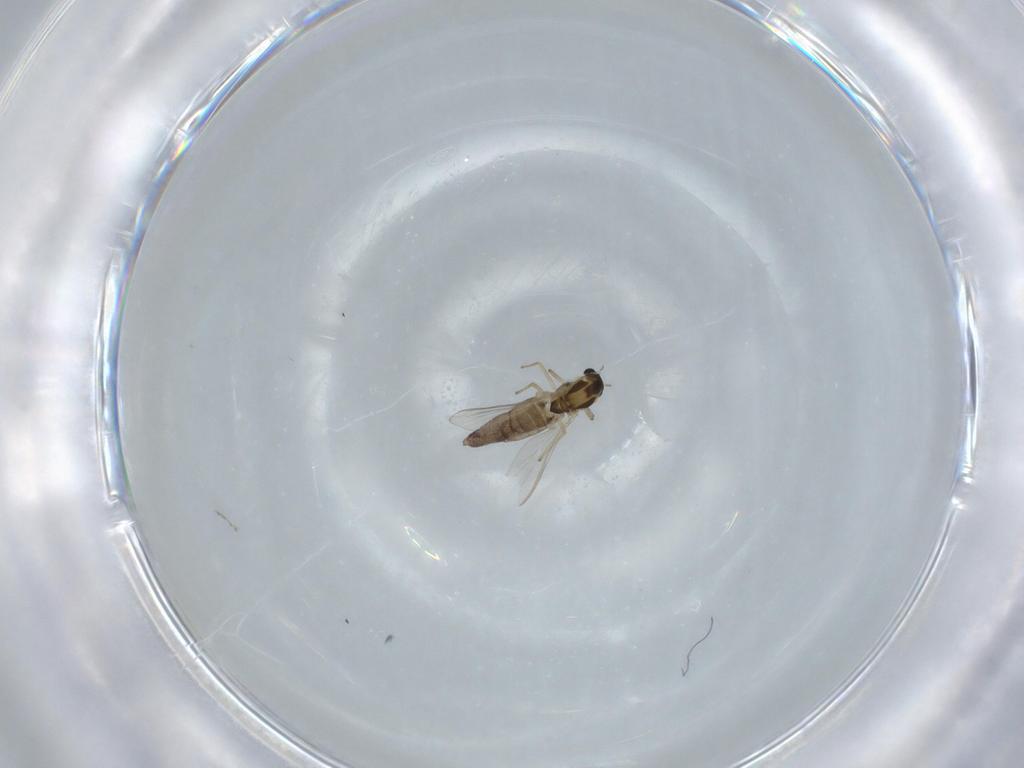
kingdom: Animalia
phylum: Arthropoda
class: Insecta
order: Diptera
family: Chironomidae
